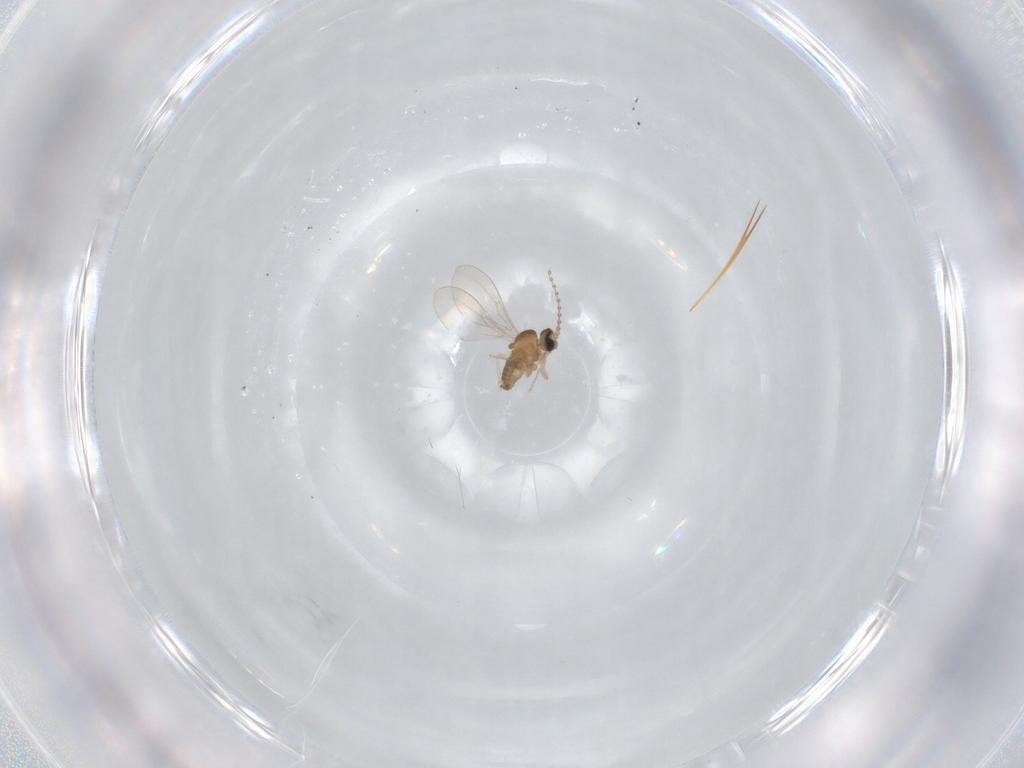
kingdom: Animalia
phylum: Arthropoda
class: Insecta
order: Diptera
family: Cecidomyiidae
